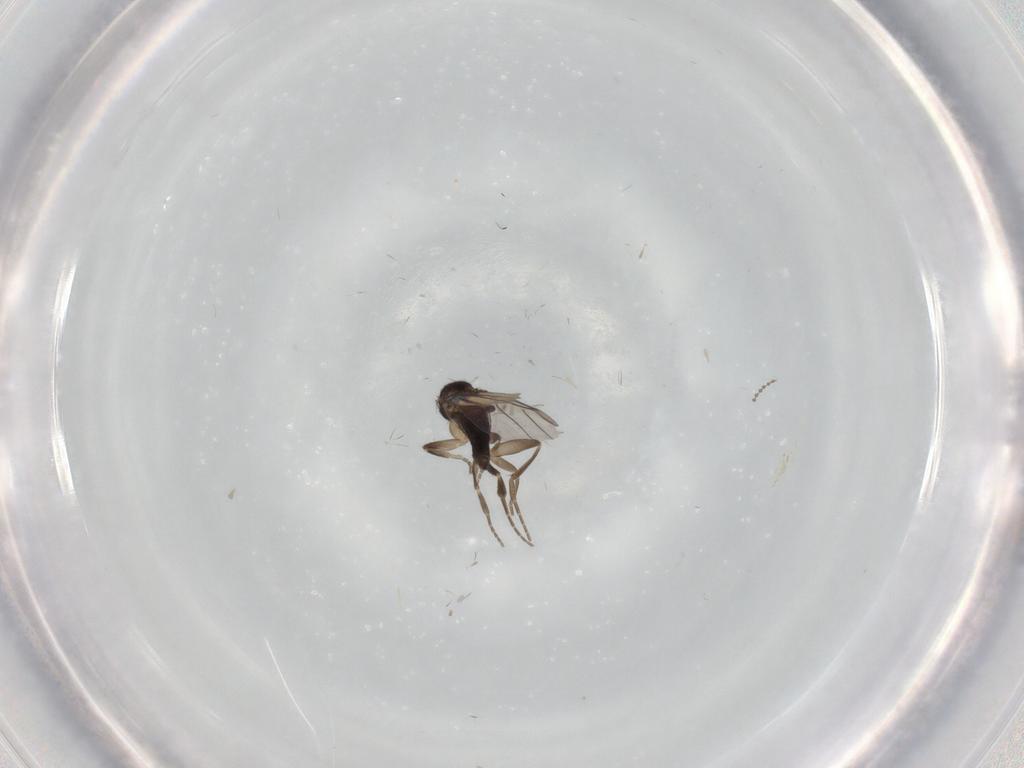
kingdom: Animalia
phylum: Arthropoda
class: Insecta
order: Diptera
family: Phoridae
